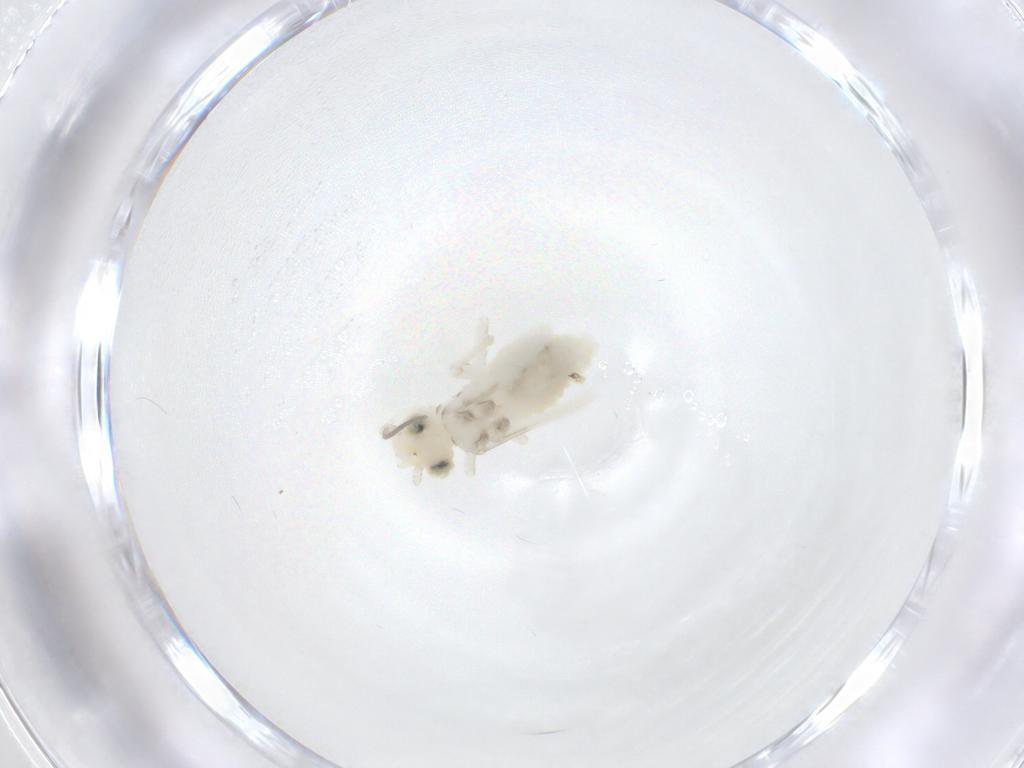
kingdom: Animalia
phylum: Arthropoda
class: Insecta
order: Psocodea
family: Caeciliusidae
